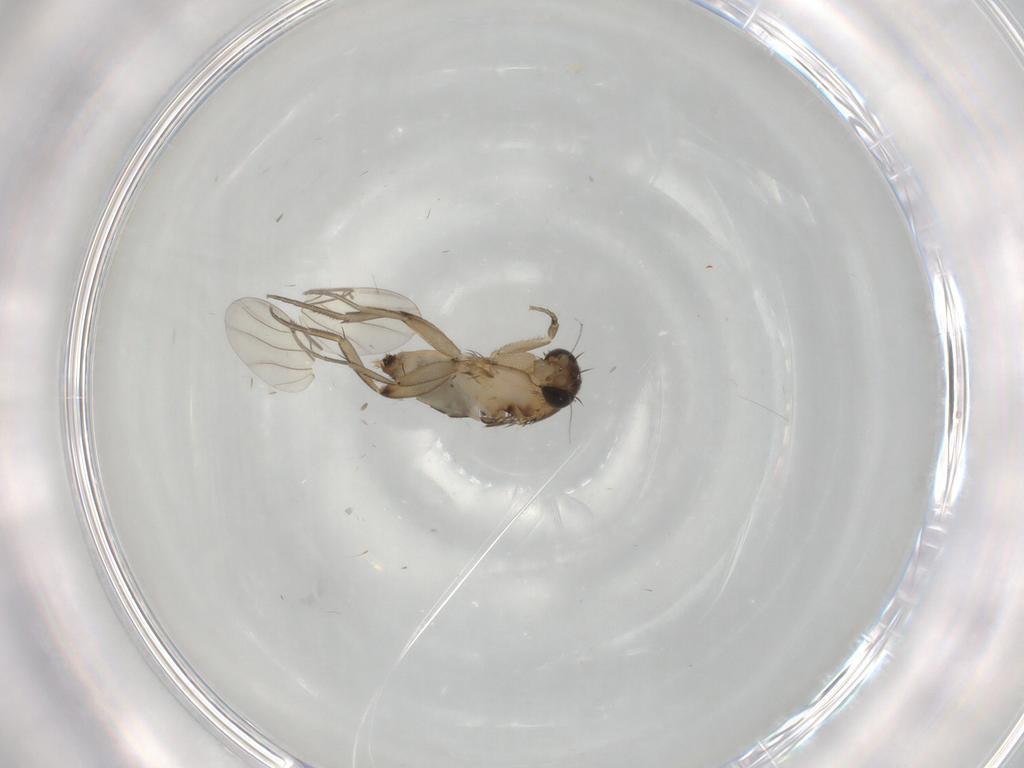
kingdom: Animalia
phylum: Arthropoda
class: Insecta
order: Diptera
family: Phoridae
